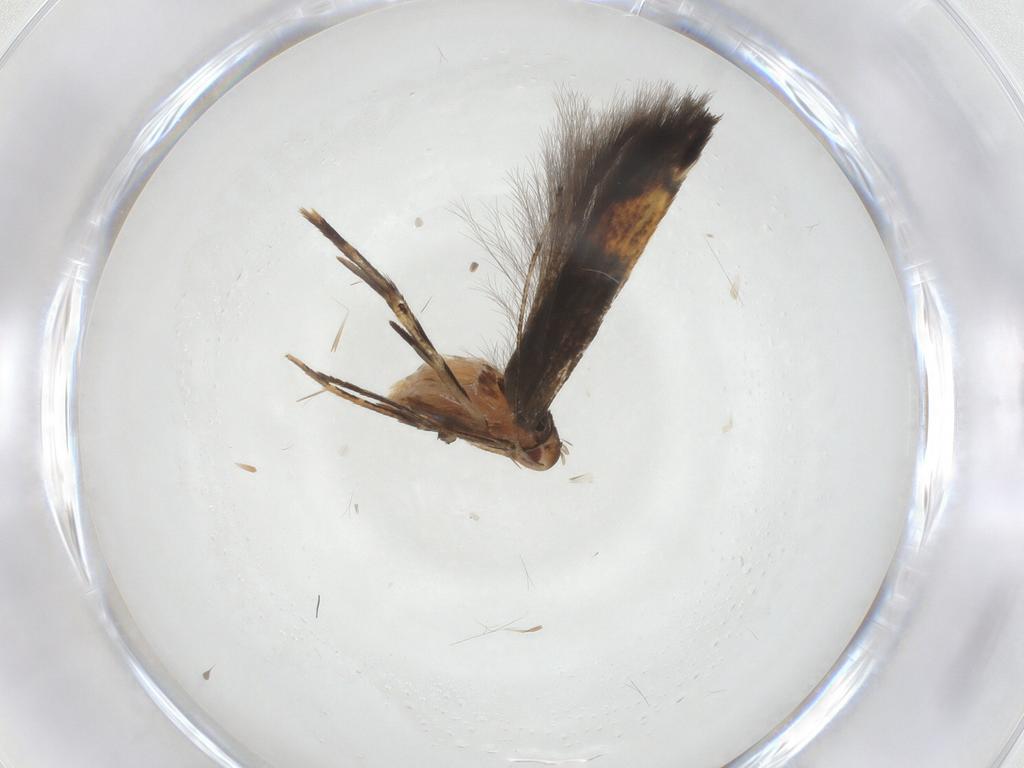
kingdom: Animalia
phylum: Arthropoda
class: Insecta
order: Lepidoptera
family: Cosmopterigidae
